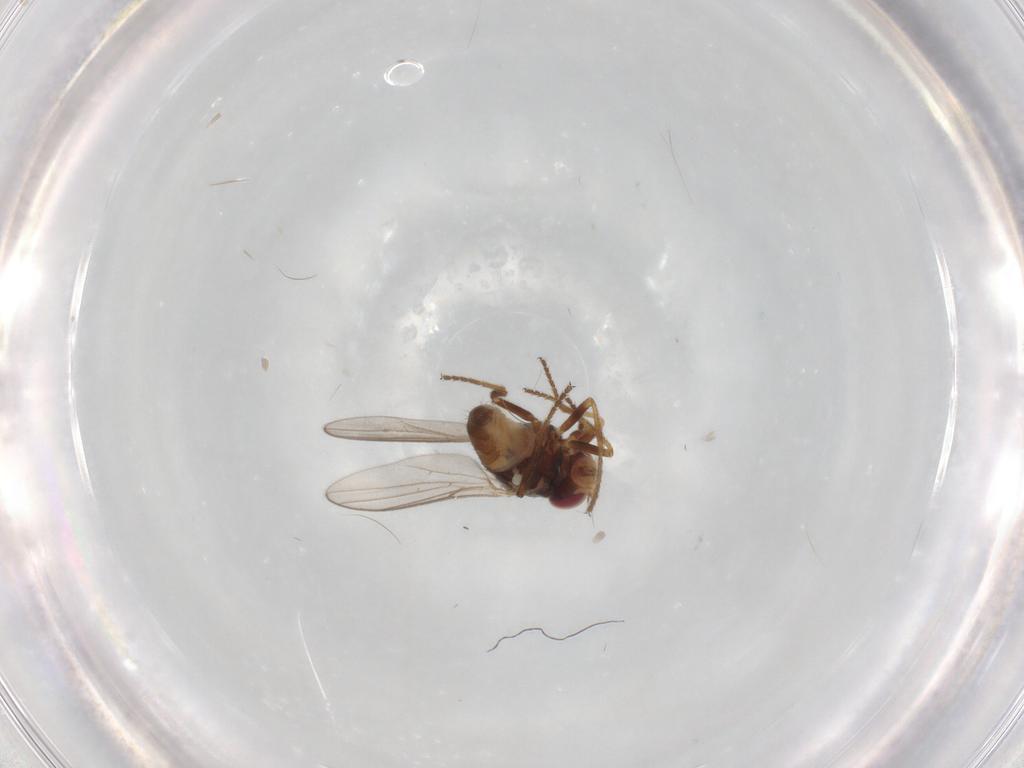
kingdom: Animalia
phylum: Arthropoda
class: Insecta
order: Diptera
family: Chloropidae
